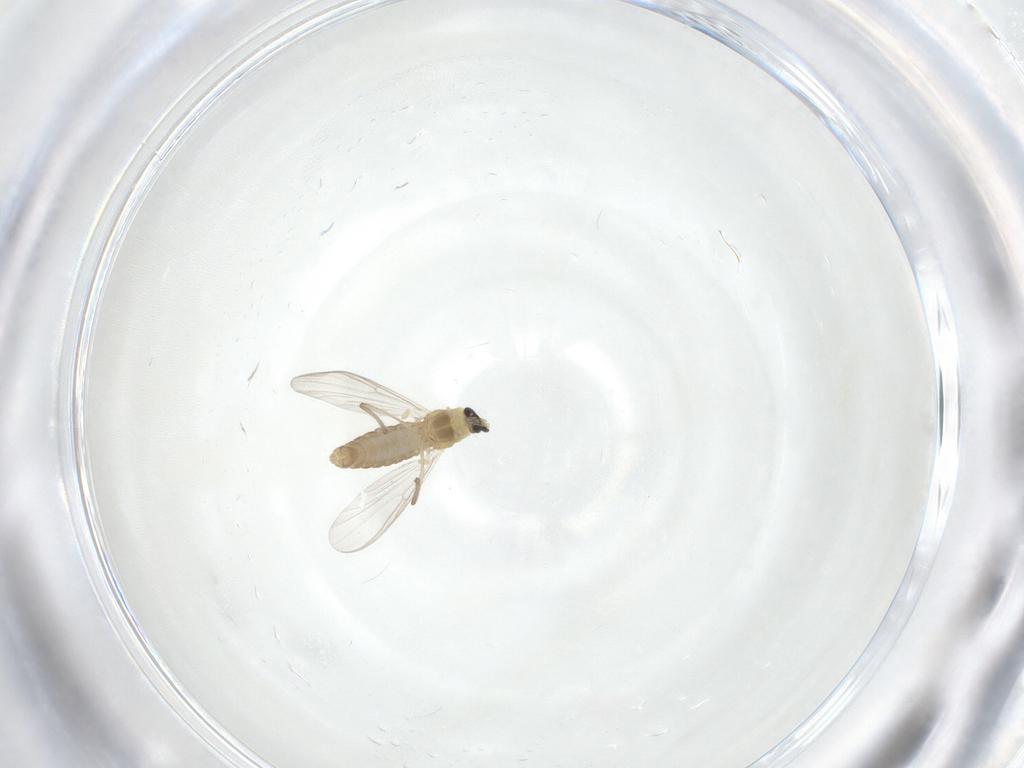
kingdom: Animalia
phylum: Arthropoda
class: Insecta
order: Diptera
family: Chironomidae
